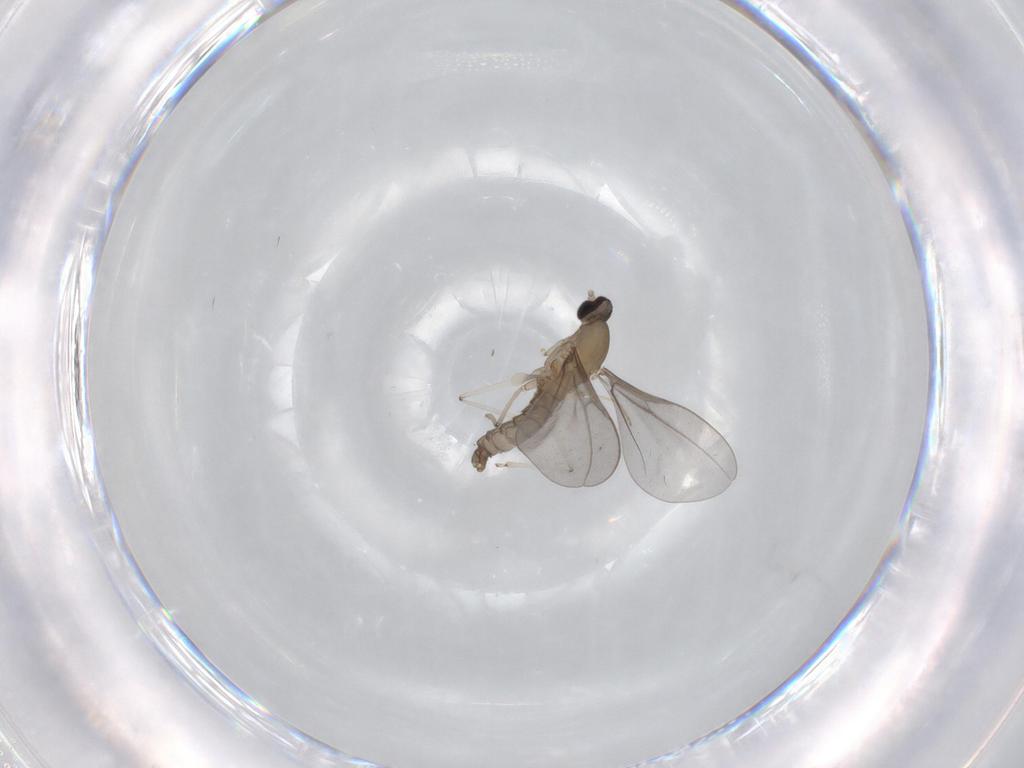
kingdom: Animalia
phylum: Arthropoda
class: Insecta
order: Diptera
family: Cecidomyiidae
